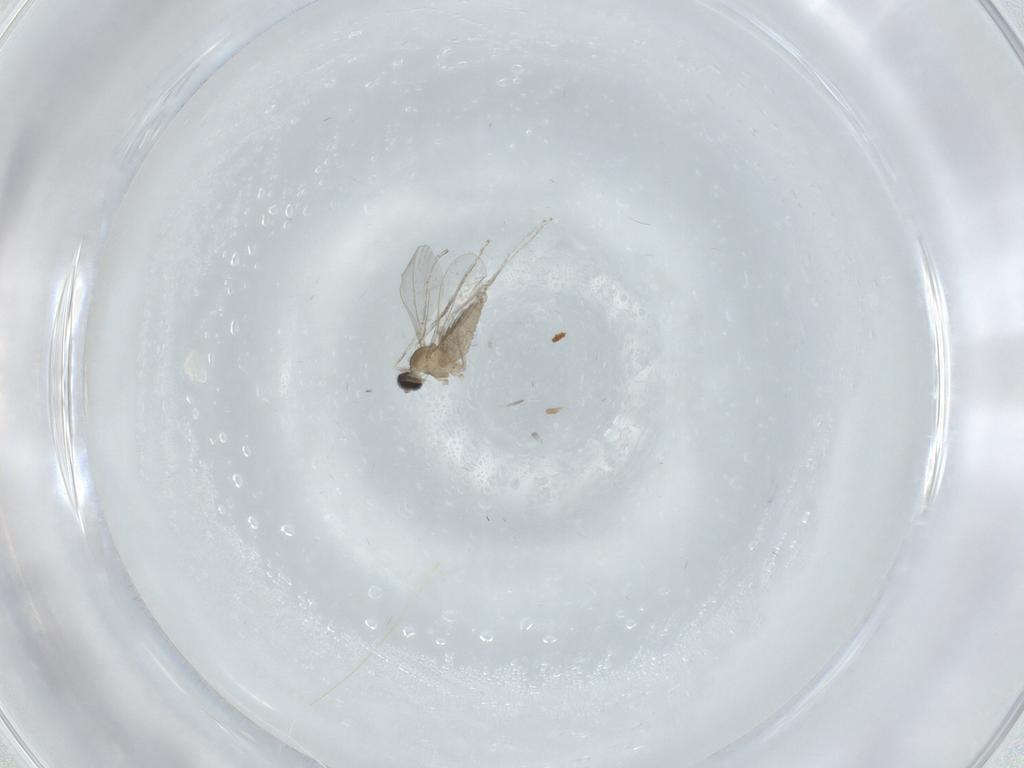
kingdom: Animalia
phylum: Arthropoda
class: Insecta
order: Diptera
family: Cecidomyiidae
